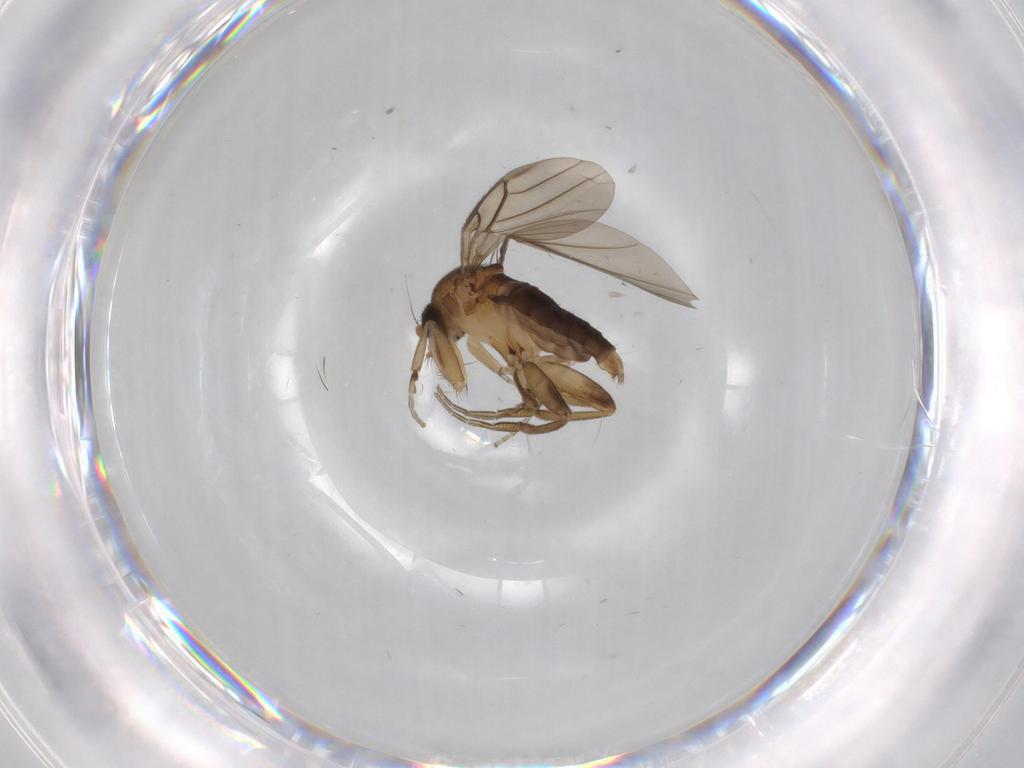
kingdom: Animalia
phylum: Arthropoda
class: Insecta
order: Diptera
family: Phoridae
